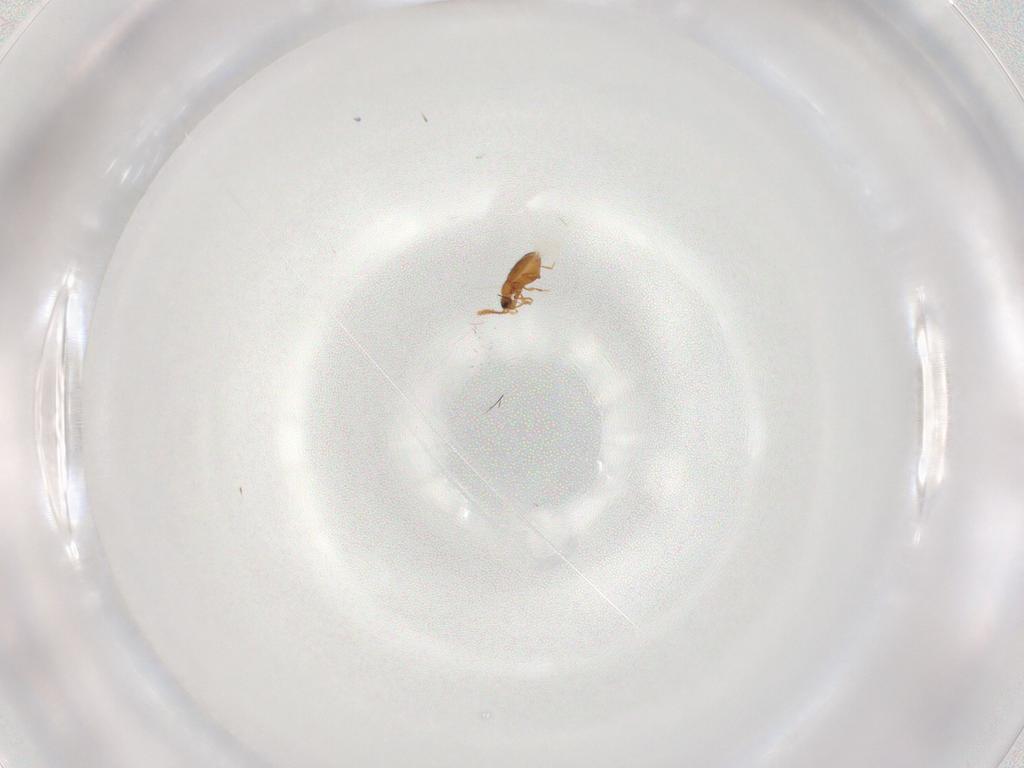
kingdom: Animalia
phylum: Arthropoda
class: Insecta
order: Coleoptera
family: Staphylinidae
